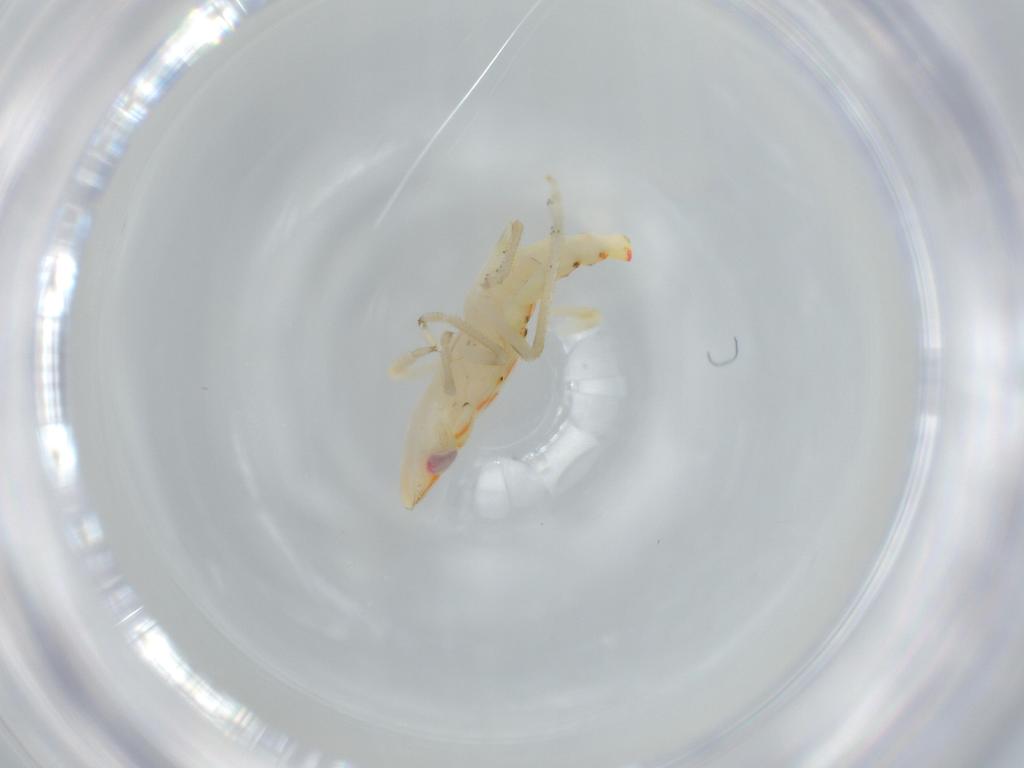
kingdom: Animalia
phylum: Arthropoda
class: Insecta
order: Hemiptera
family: Tropiduchidae
